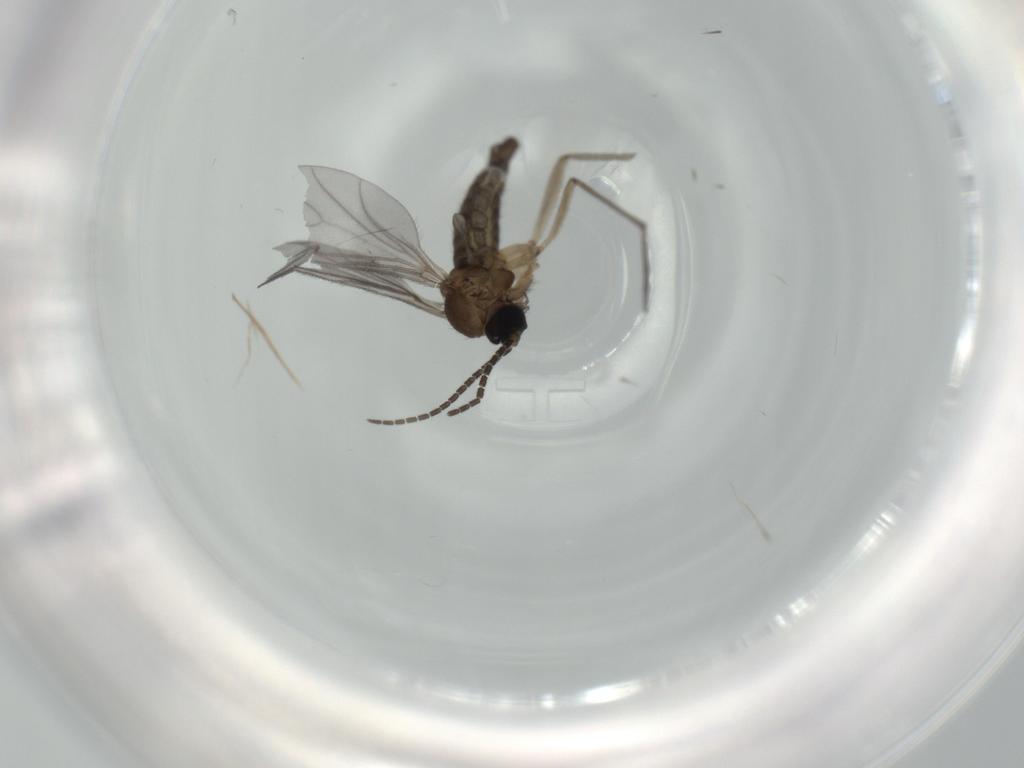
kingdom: Animalia
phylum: Arthropoda
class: Insecta
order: Diptera
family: Sciaridae
